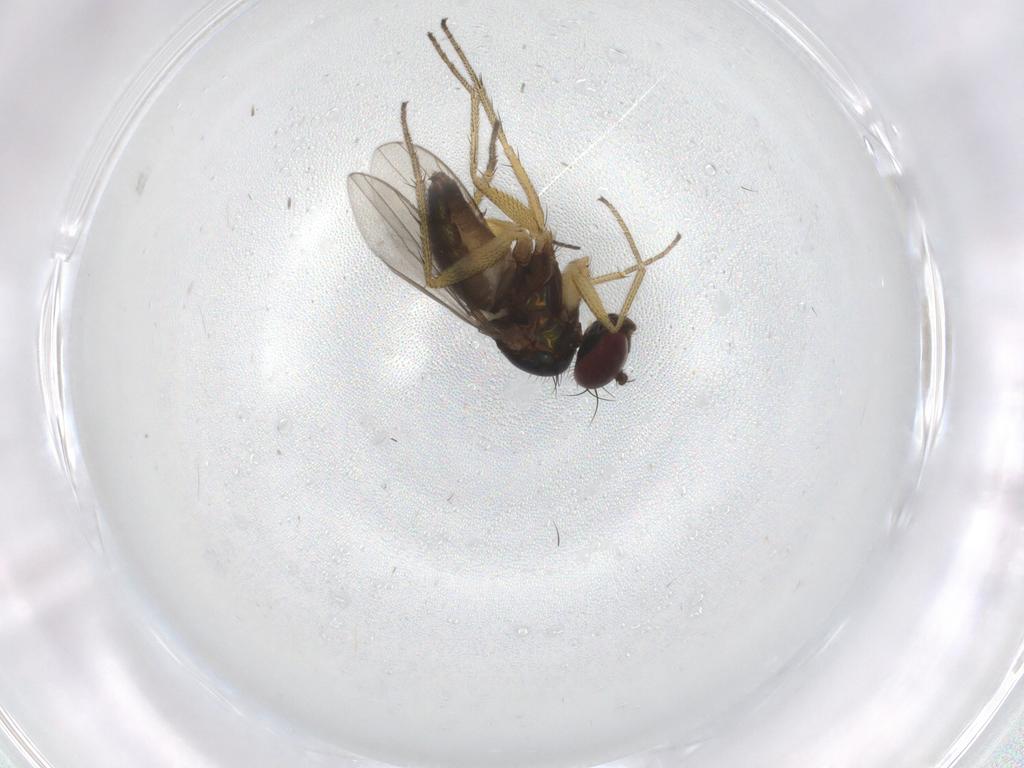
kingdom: Animalia
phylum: Arthropoda
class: Insecta
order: Diptera
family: Ceratopogonidae
